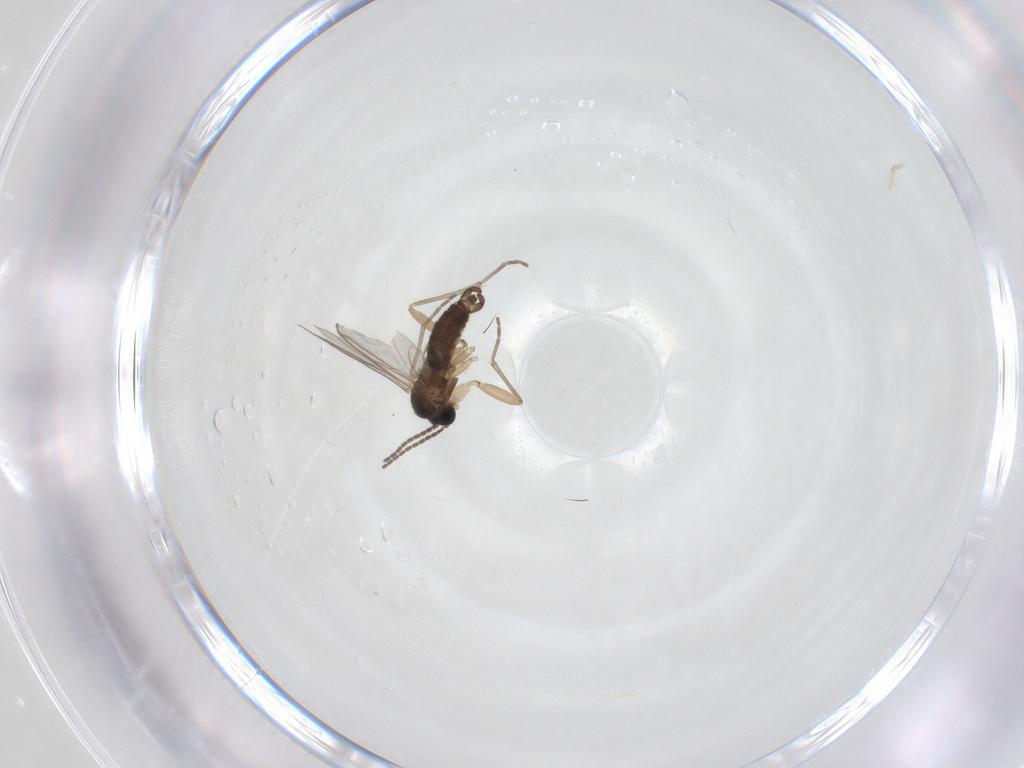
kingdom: Animalia
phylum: Arthropoda
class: Insecta
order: Diptera
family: Sciaridae
